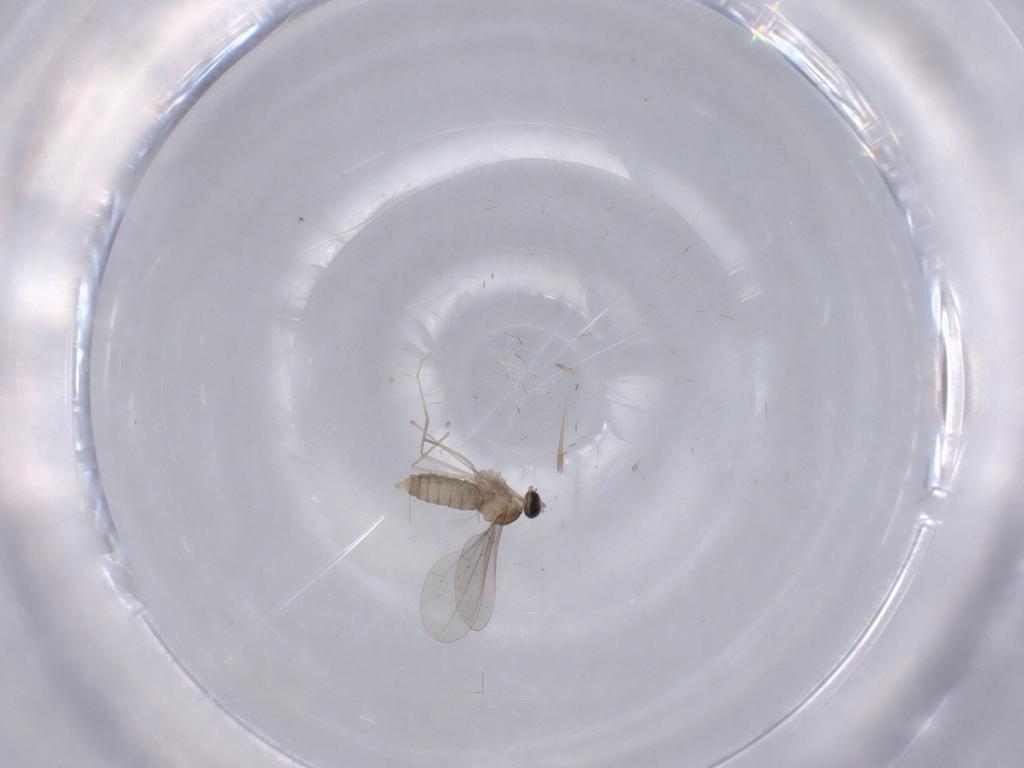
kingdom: Animalia
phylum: Arthropoda
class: Insecta
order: Diptera
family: Cecidomyiidae
